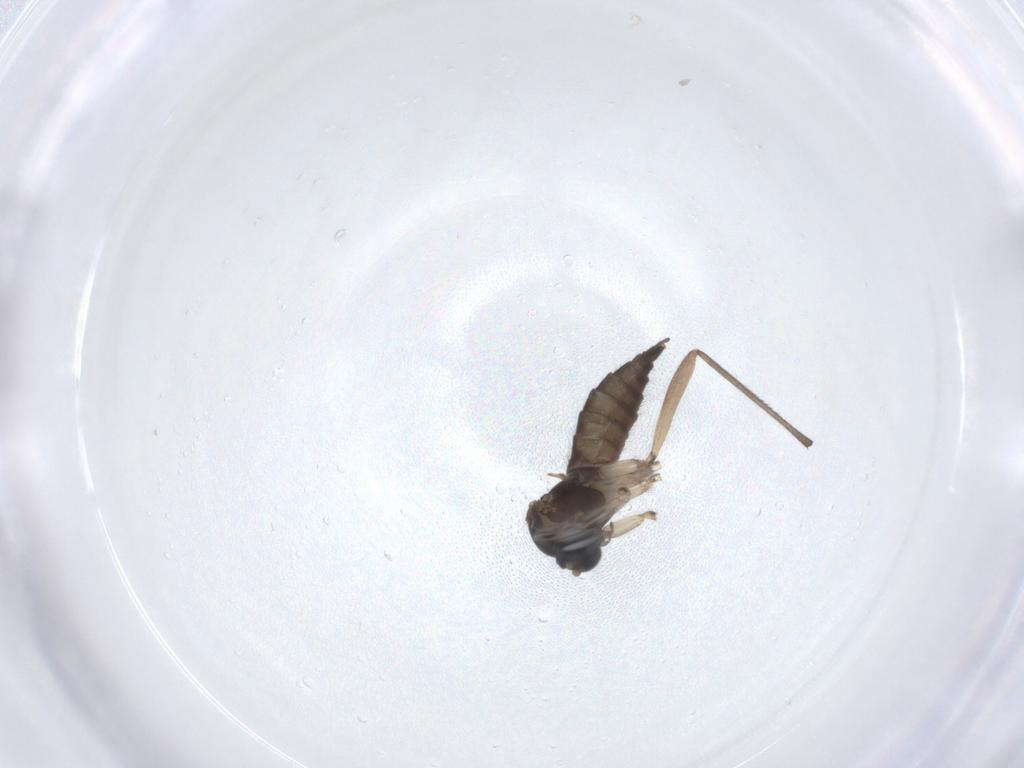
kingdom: Animalia
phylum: Arthropoda
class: Insecta
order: Diptera
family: Sciaridae
